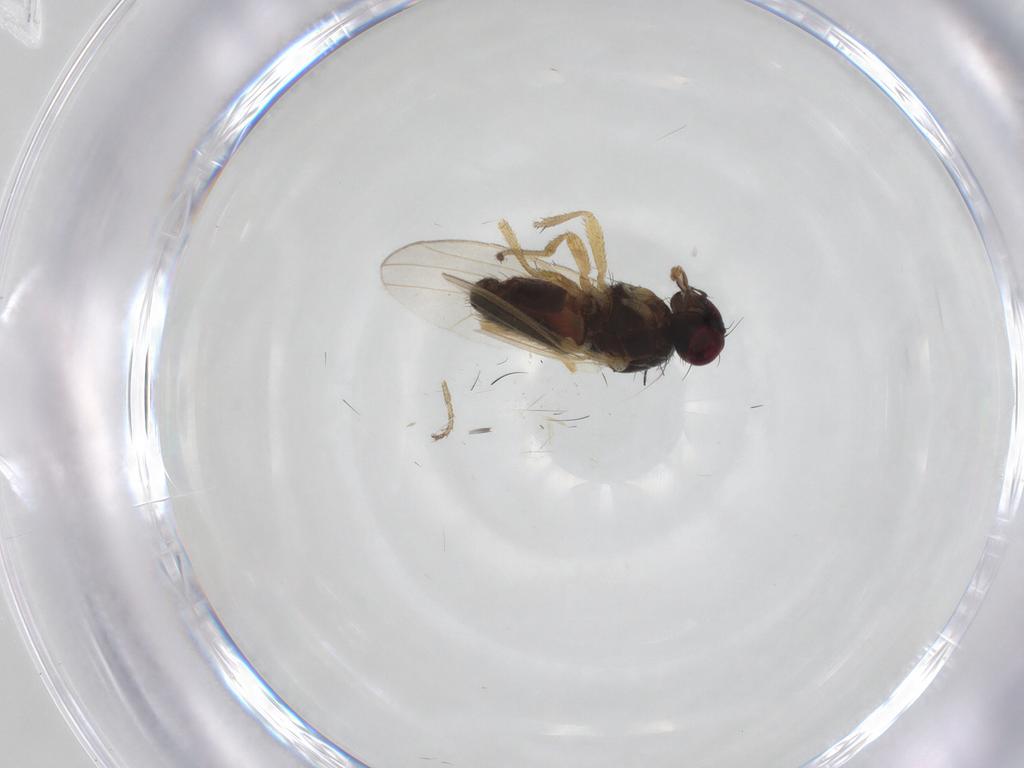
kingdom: Animalia
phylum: Arthropoda
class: Insecta
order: Diptera
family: Heleomyzidae
